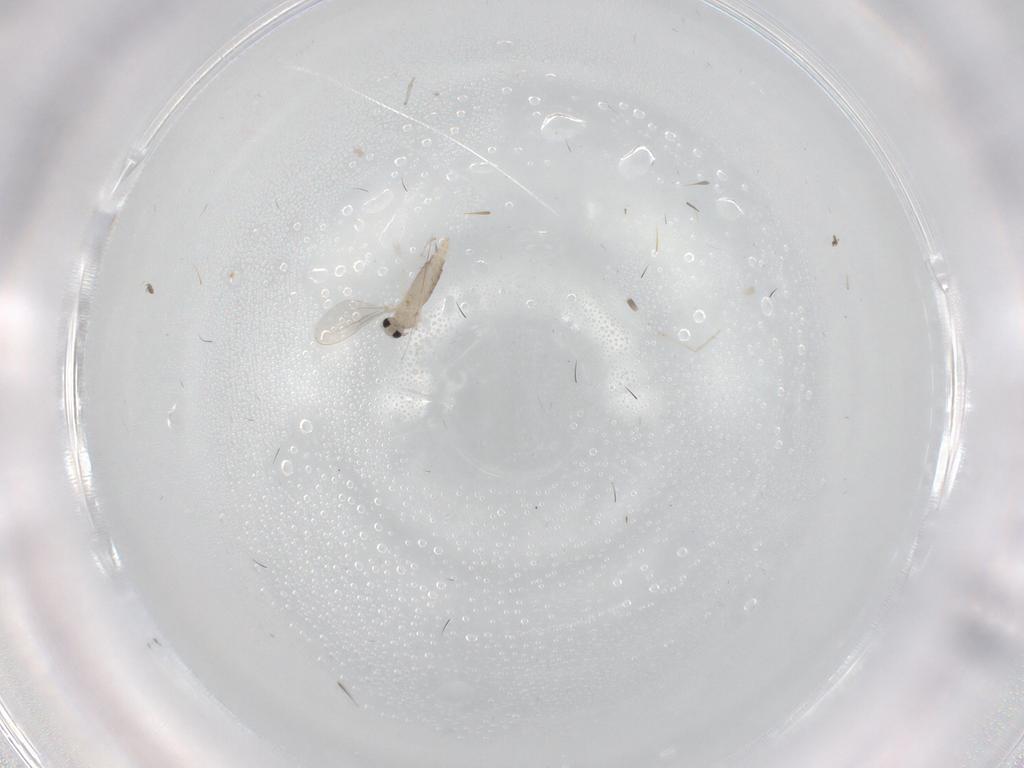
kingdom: Animalia
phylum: Arthropoda
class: Insecta
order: Diptera
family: Cecidomyiidae
